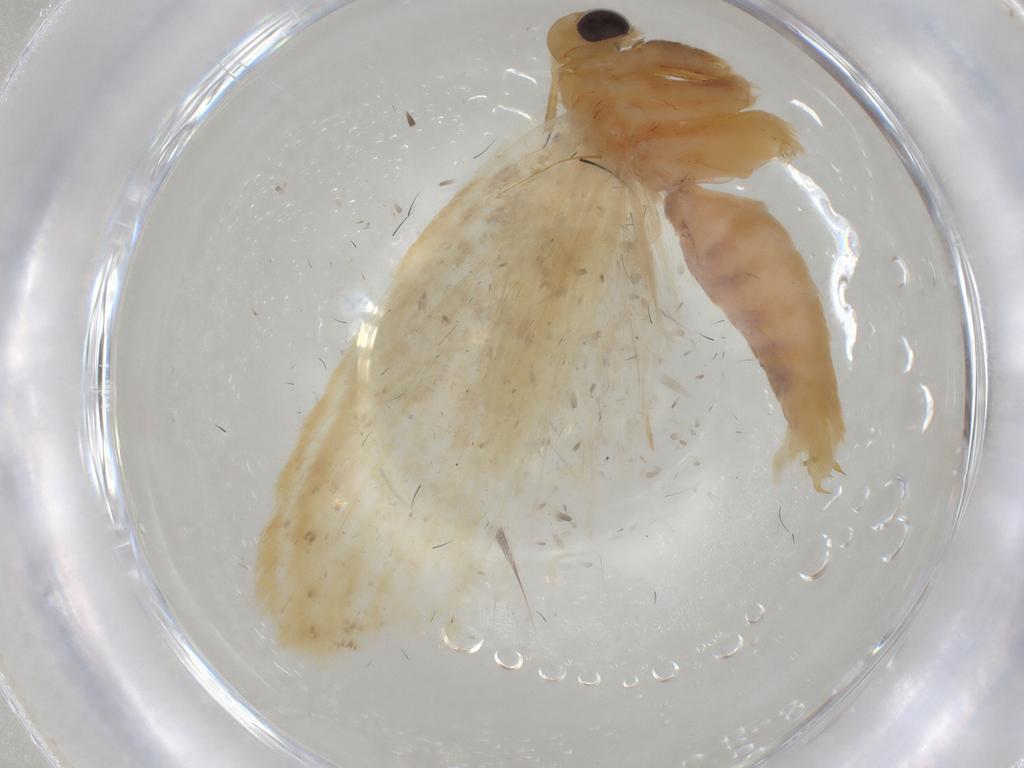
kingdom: Animalia
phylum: Arthropoda
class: Insecta
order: Lepidoptera
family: Depressariidae
